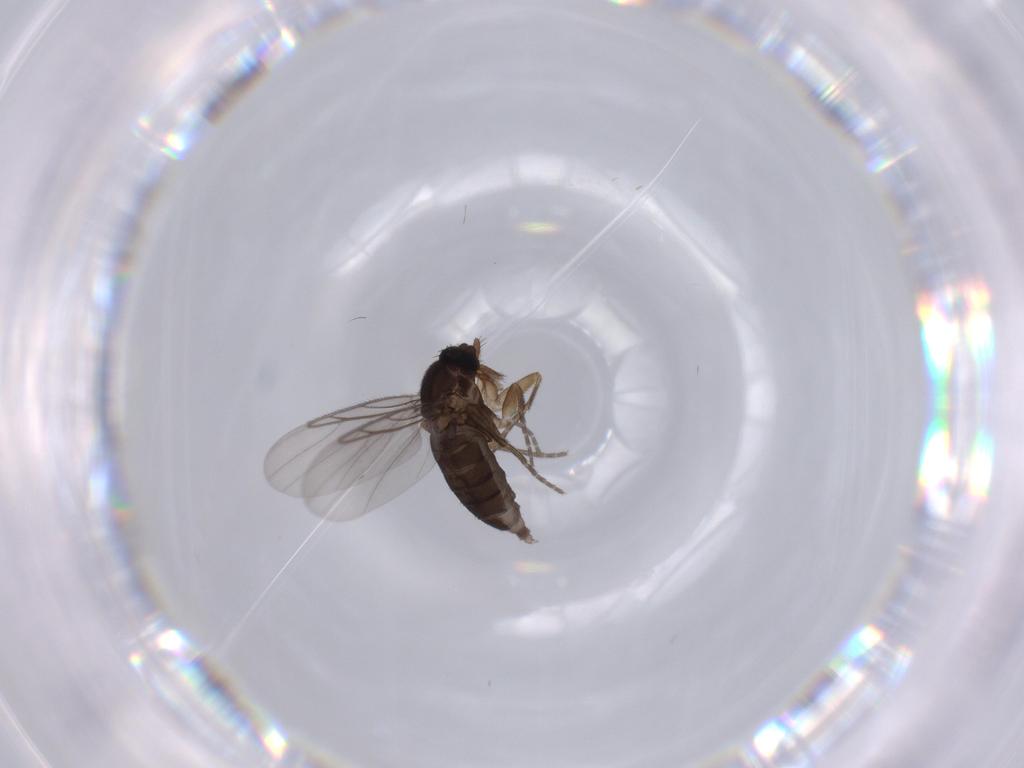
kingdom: Animalia
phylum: Arthropoda
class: Insecta
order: Diptera
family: Phoridae
